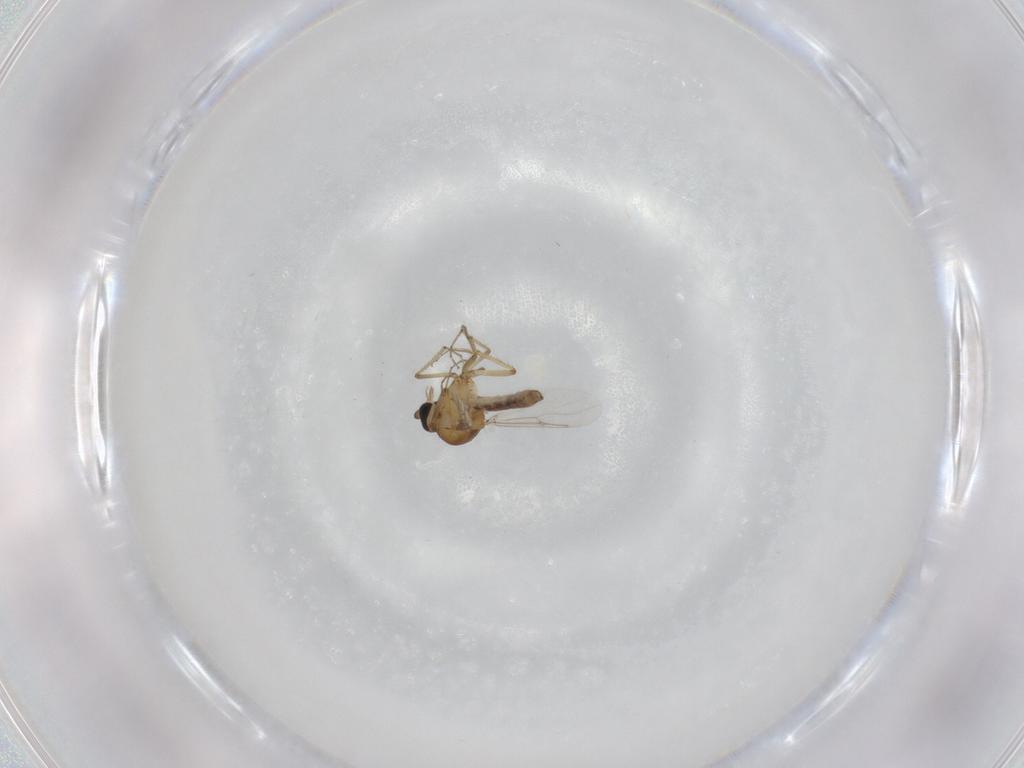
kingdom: Animalia
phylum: Arthropoda
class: Insecta
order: Diptera
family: Ceratopogonidae
